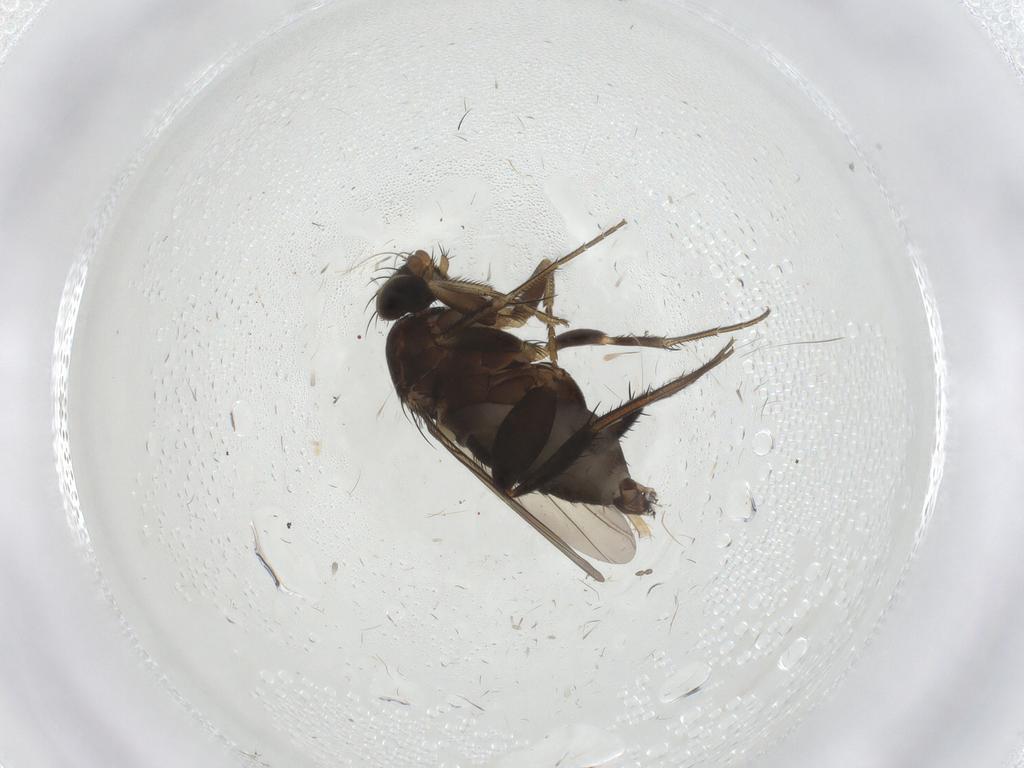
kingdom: Animalia
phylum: Arthropoda
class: Insecta
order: Diptera
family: Phoridae
